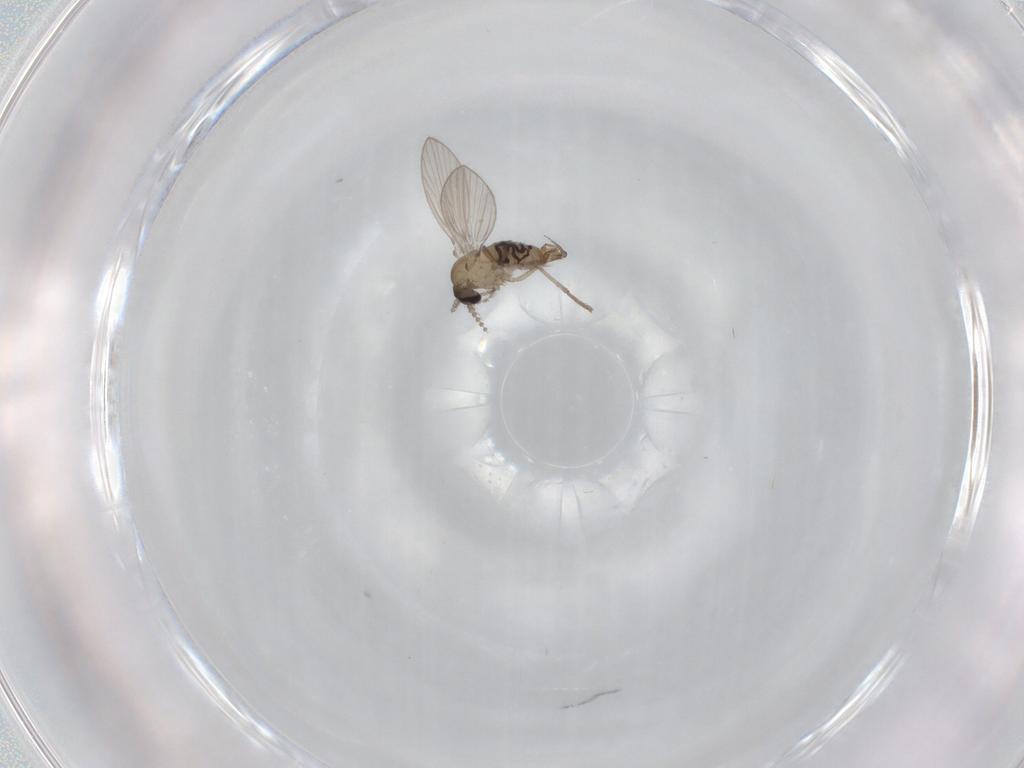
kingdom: Animalia
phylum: Arthropoda
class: Insecta
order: Diptera
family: Psychodidae
